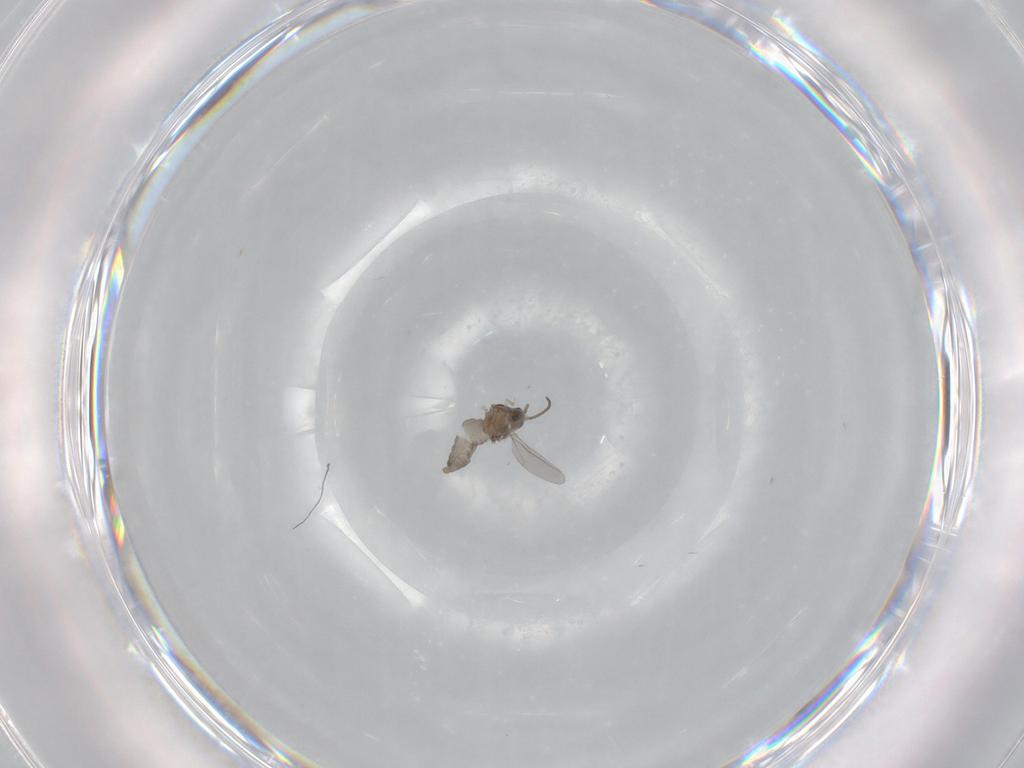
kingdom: Animalia
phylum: Arthropoda
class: Insecta
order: Diptera
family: Cecidomyiidae
